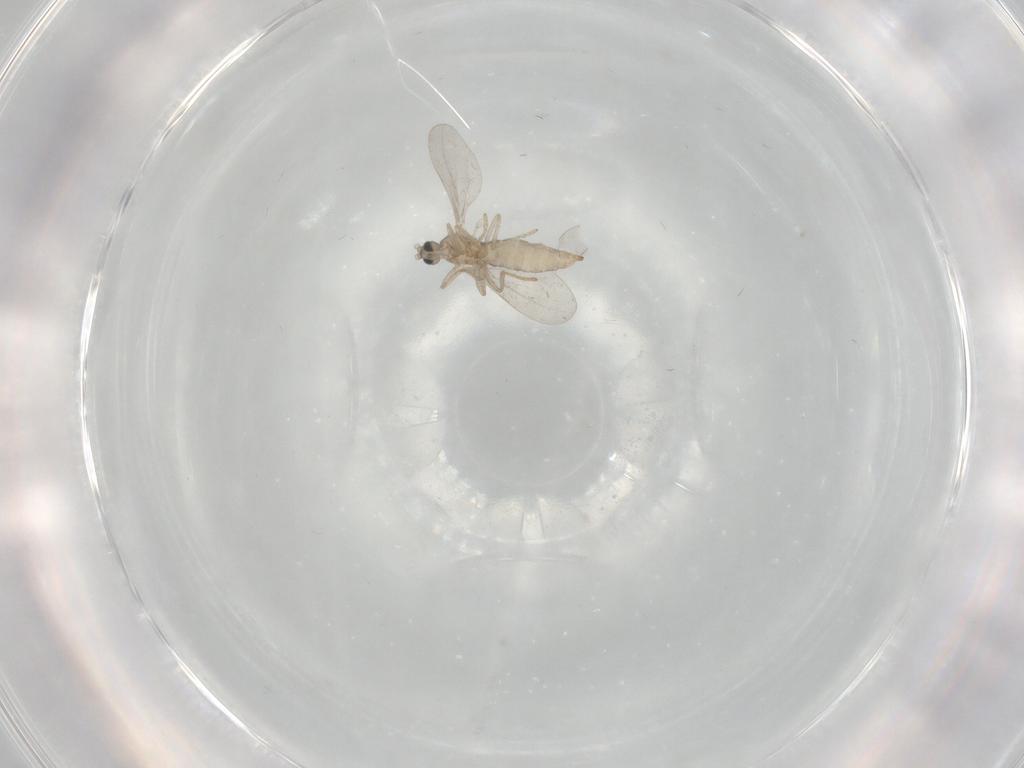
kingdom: Animalia
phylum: Arthropoda
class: Insecta
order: Diptera
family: Cecidomyiidae
